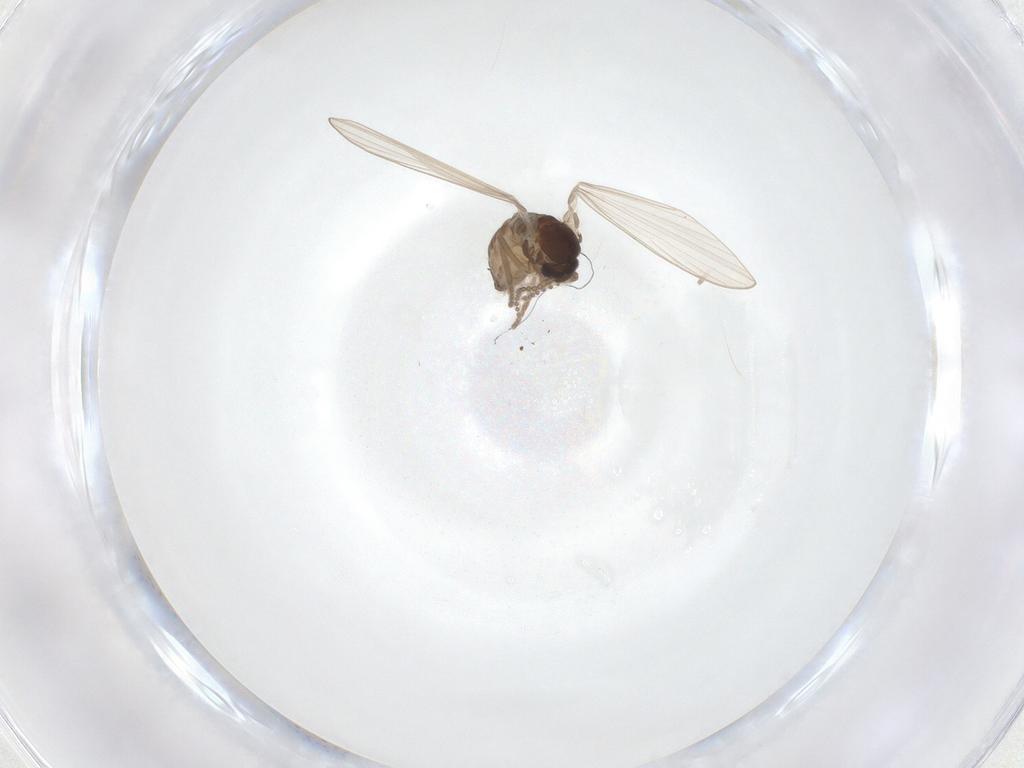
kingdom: Animalia
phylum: Arthropoda
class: Insecta
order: Diptera
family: Psychodidae
